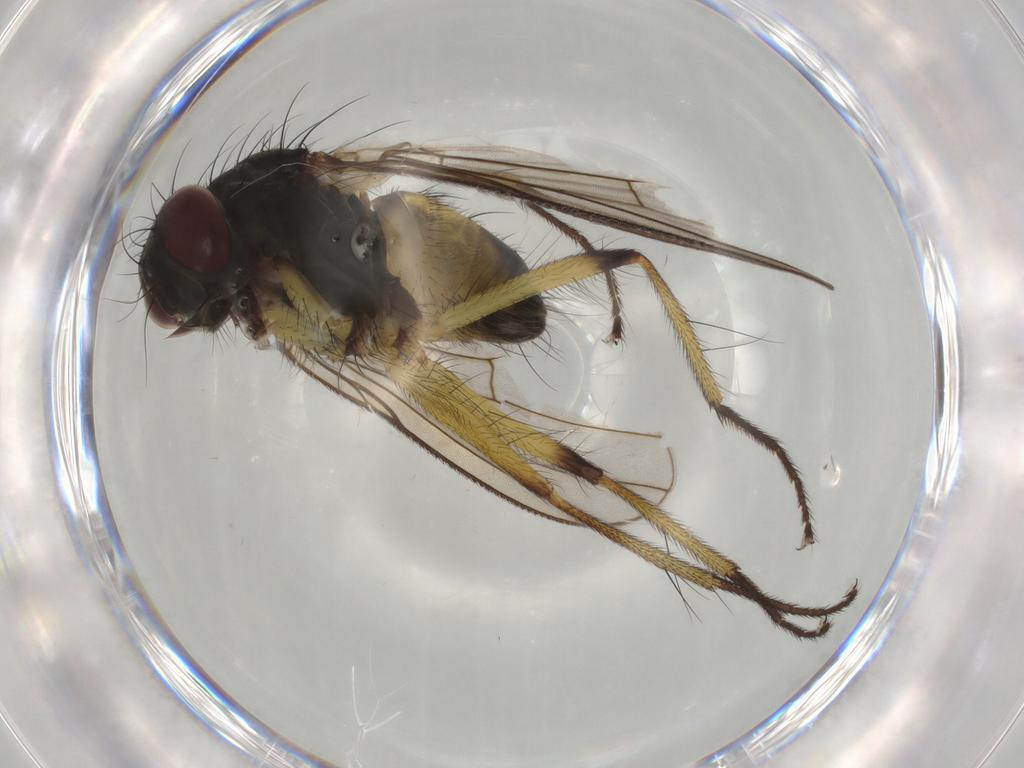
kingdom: Animalia
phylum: Arthropoda
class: Insecta
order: Diptera
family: Muscidae
